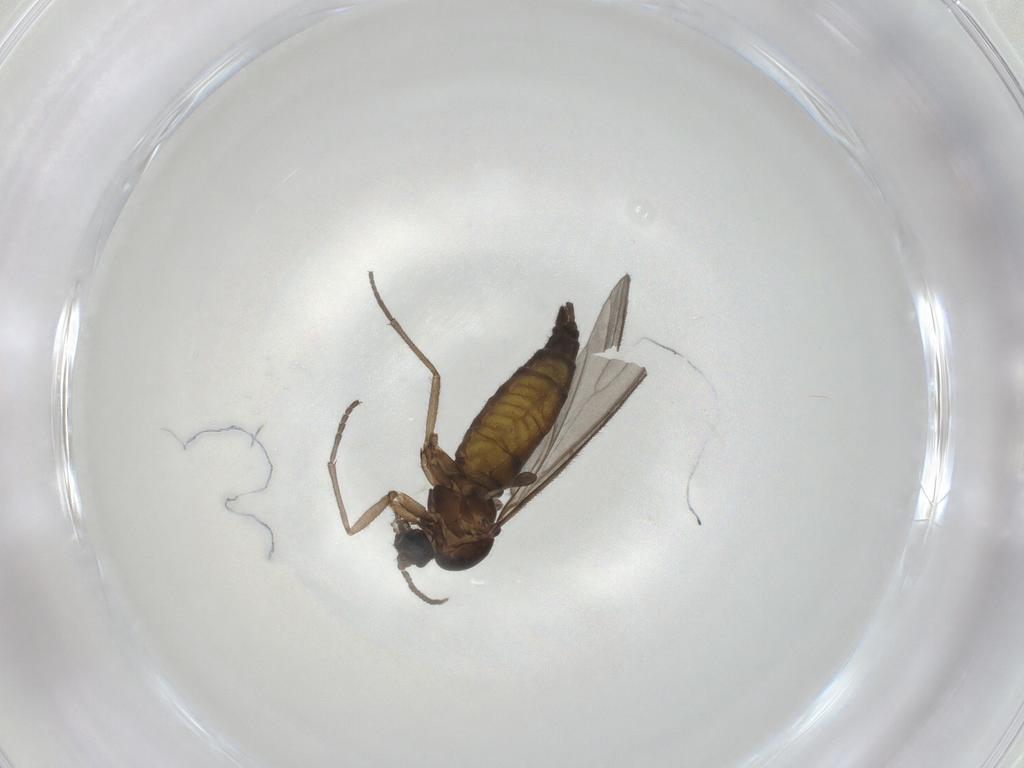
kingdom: Animalia
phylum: Arthropoda
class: Insecta
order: Diptera
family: Sciaridae
